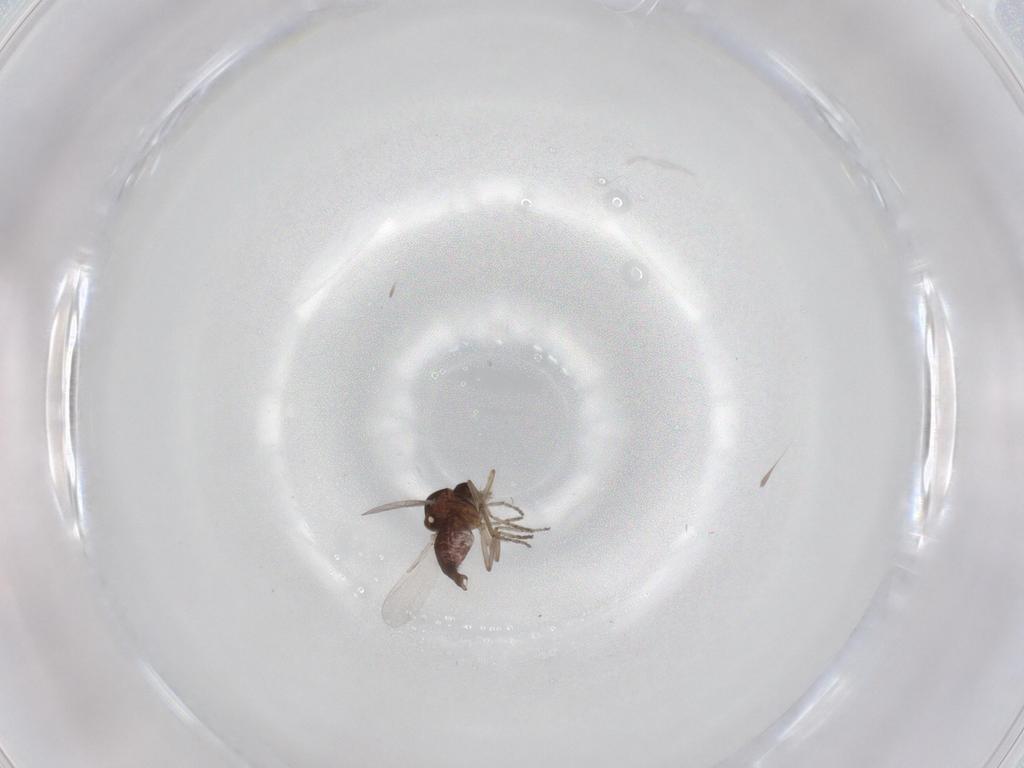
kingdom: Animalia
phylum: Arthropoda
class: Insecta
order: Diptera
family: Ceratopogonidae
